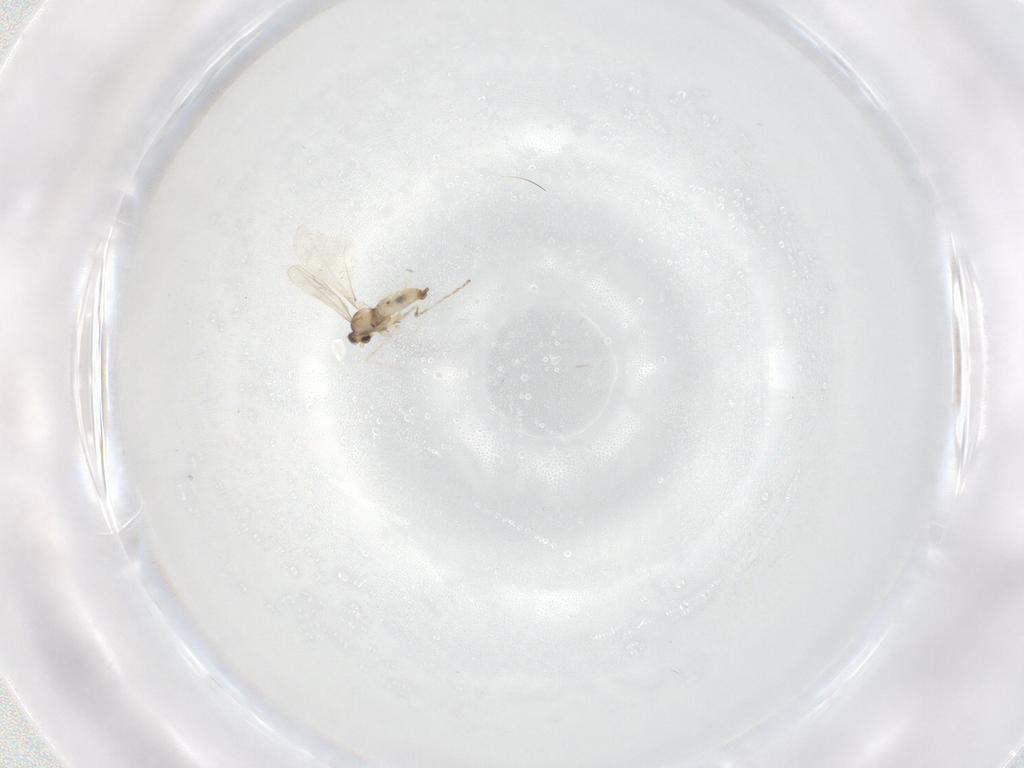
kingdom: Animalia
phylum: Arthropoda
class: Insecta
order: Diptera
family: Cecidomyiidae
